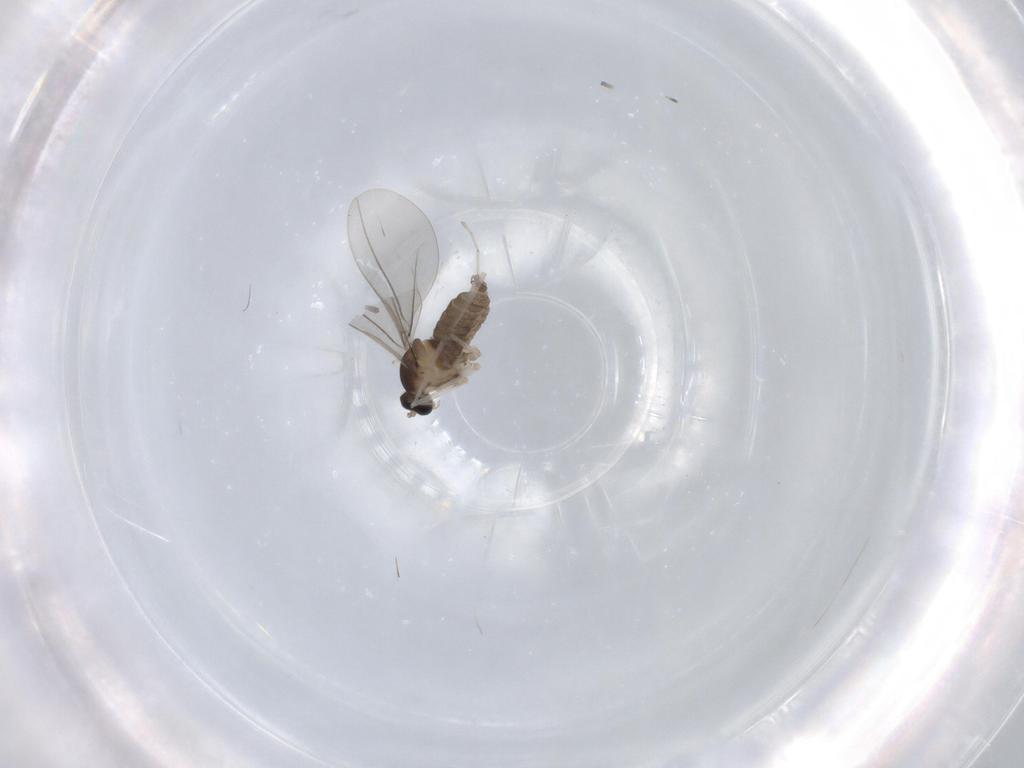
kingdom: Animalia
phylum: Arthropoda
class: Insecta
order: Diptera
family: Cecidomyiidae
